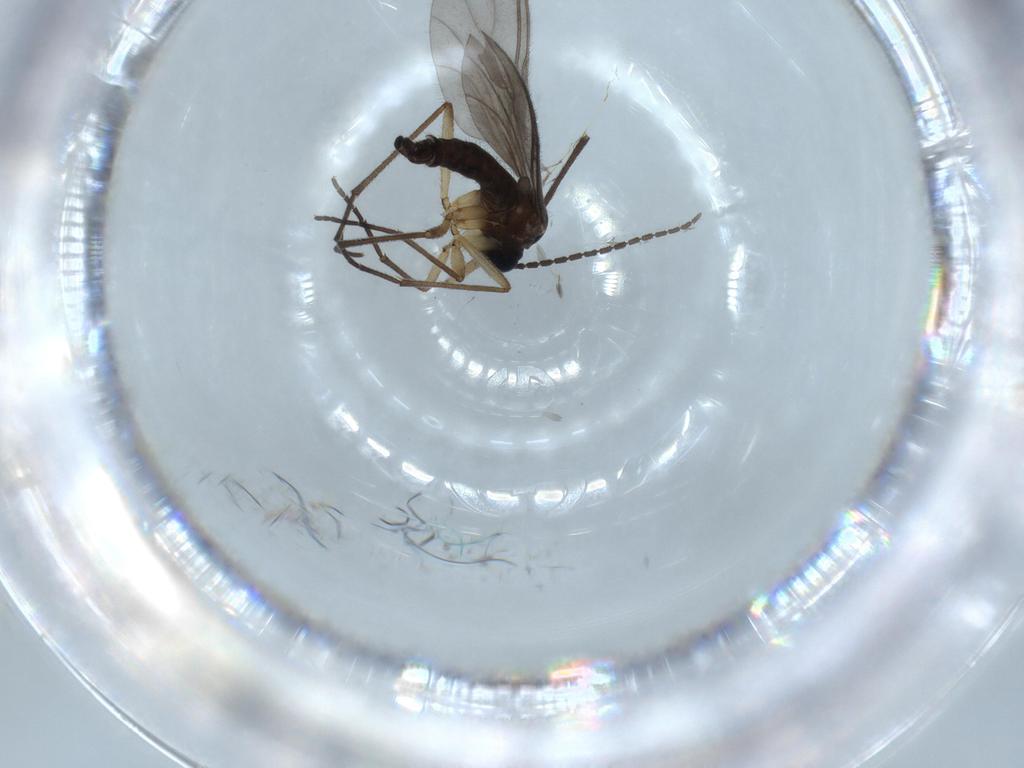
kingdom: Animalia
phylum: Arthropoda
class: Insecta
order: Diptera
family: Sciaridae
